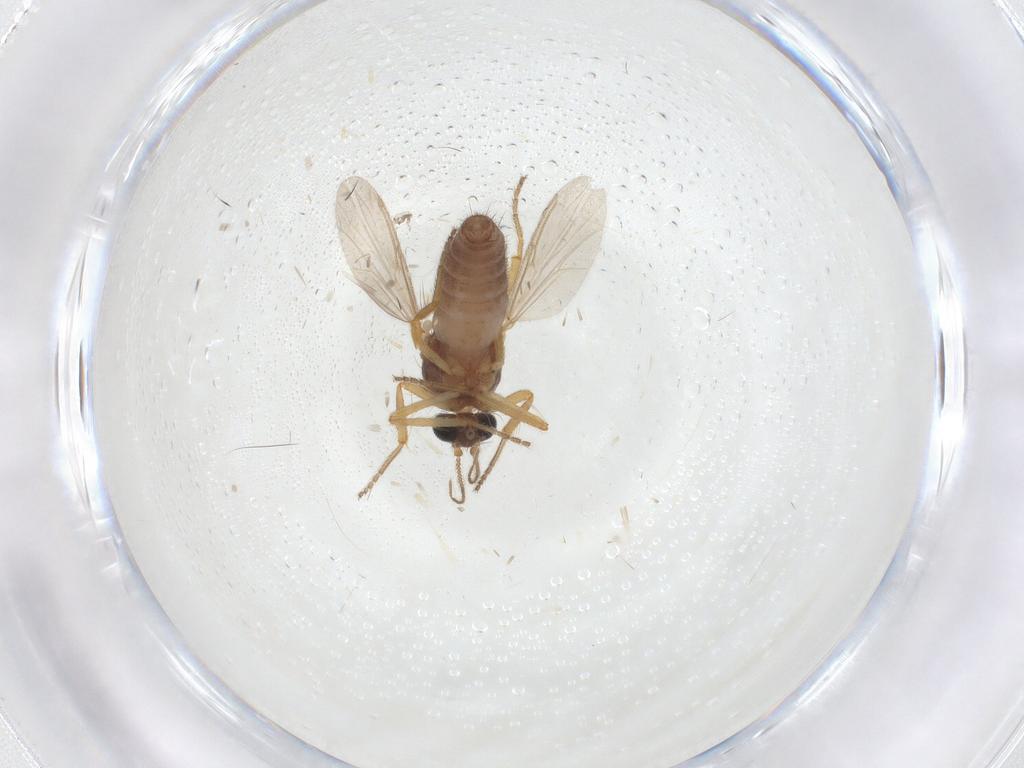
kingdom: Animalia
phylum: Arthropoda
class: Insecta
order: Diptera
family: Ceratopogonidae
